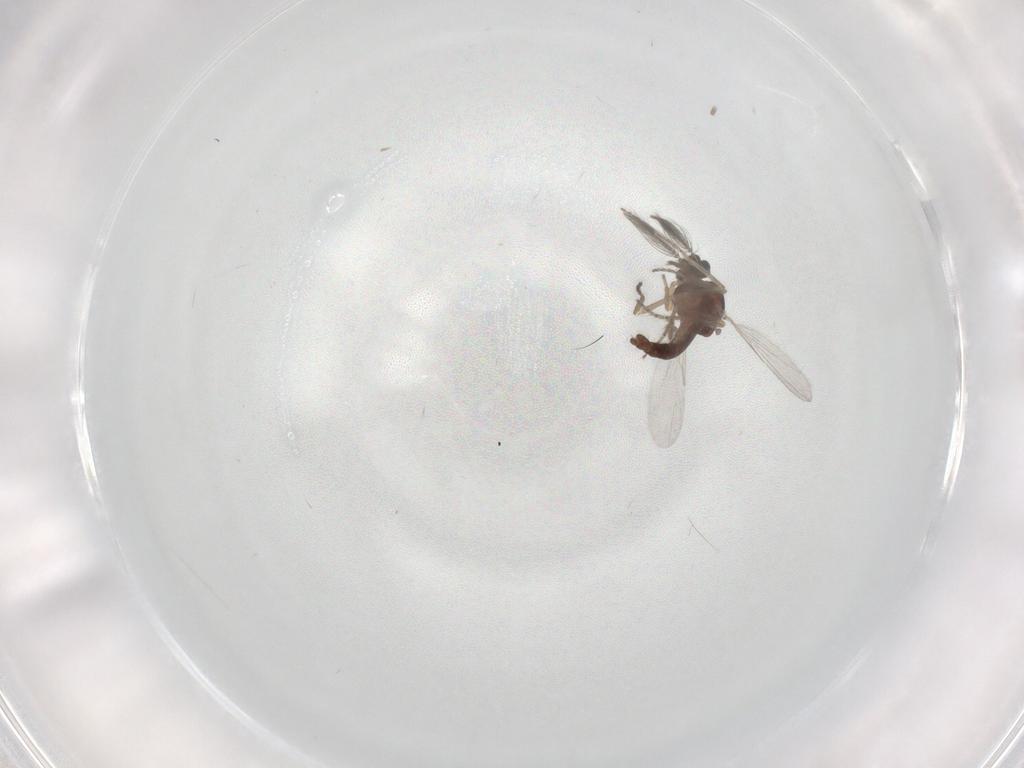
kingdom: Animalia
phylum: Arthropoda
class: Insecta
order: Diptera
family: Ceratopogonidae
